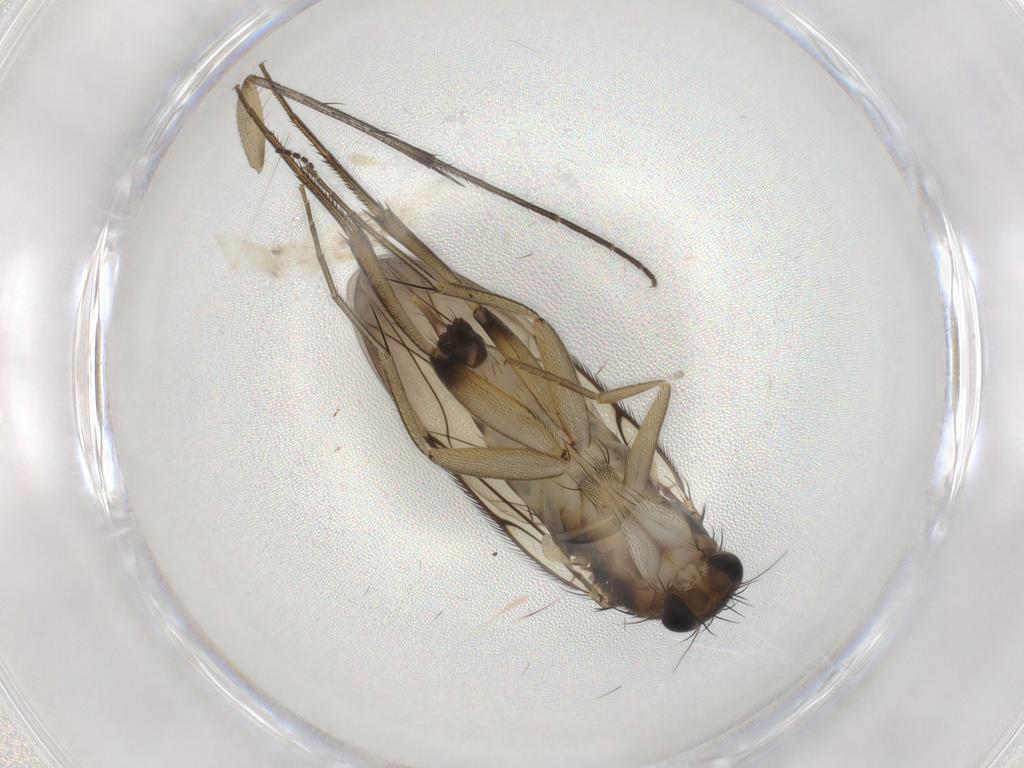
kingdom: Animalia
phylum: Arthropoda
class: Insecta
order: Diptera
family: Phoridae
